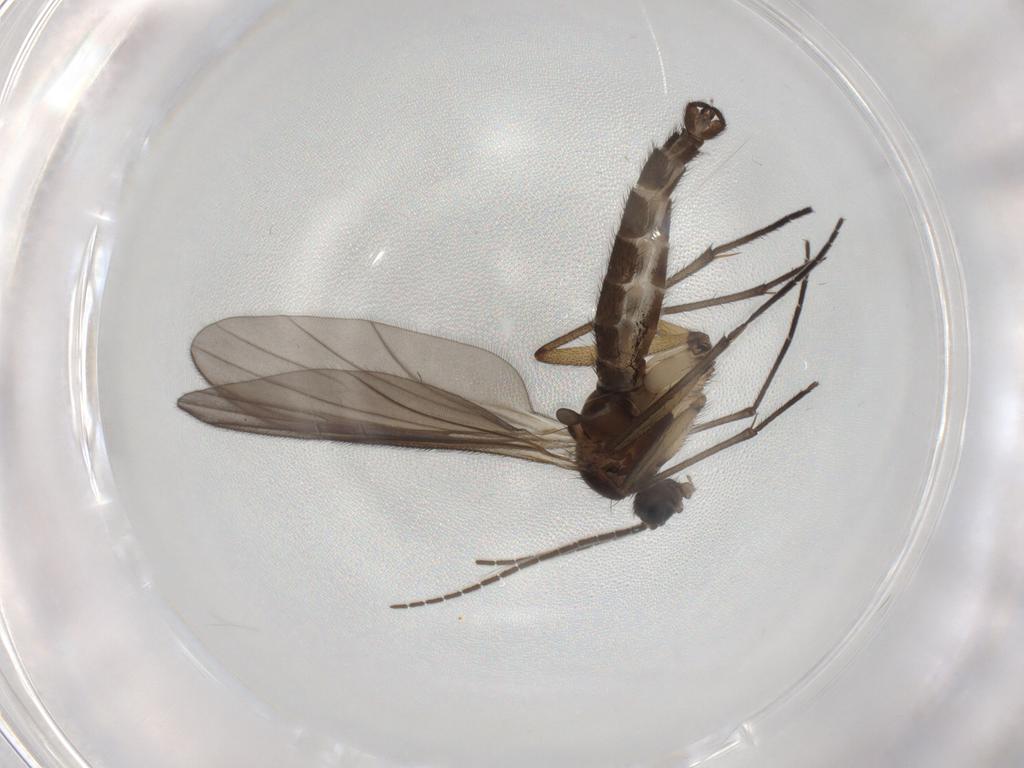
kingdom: Animalia
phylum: Arthropoda
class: Insecta
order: Diptera
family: Sciaridae
